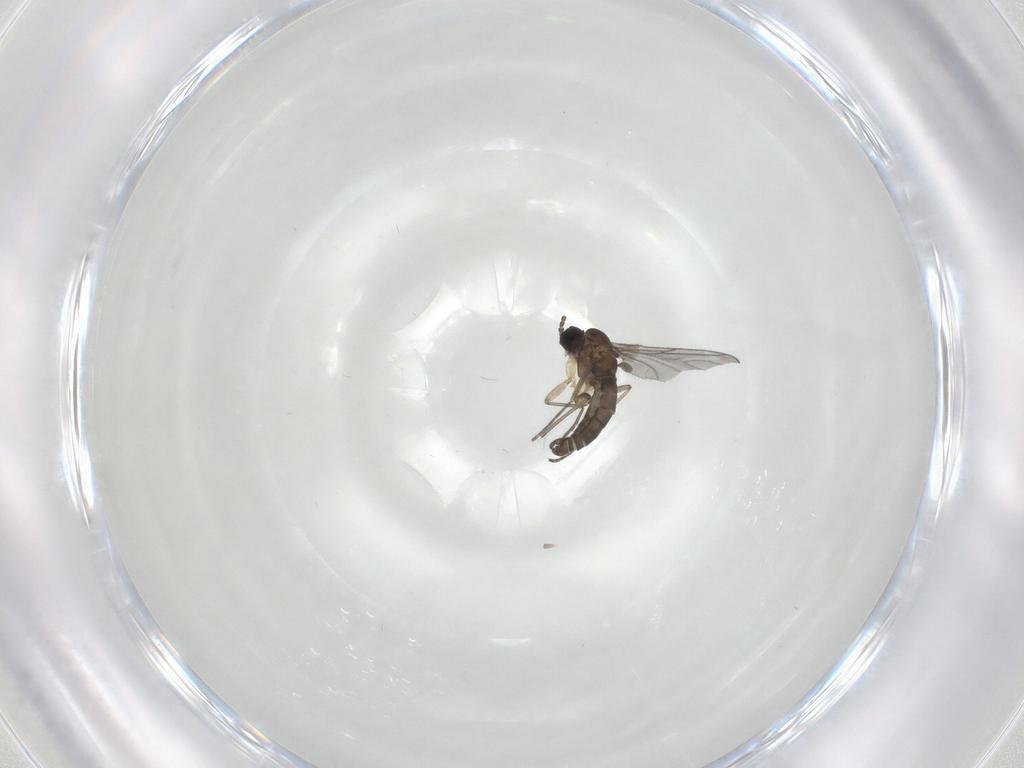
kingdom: Animalia
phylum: Arthropoda
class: Insecta
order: Diptera
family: Sciaridae
